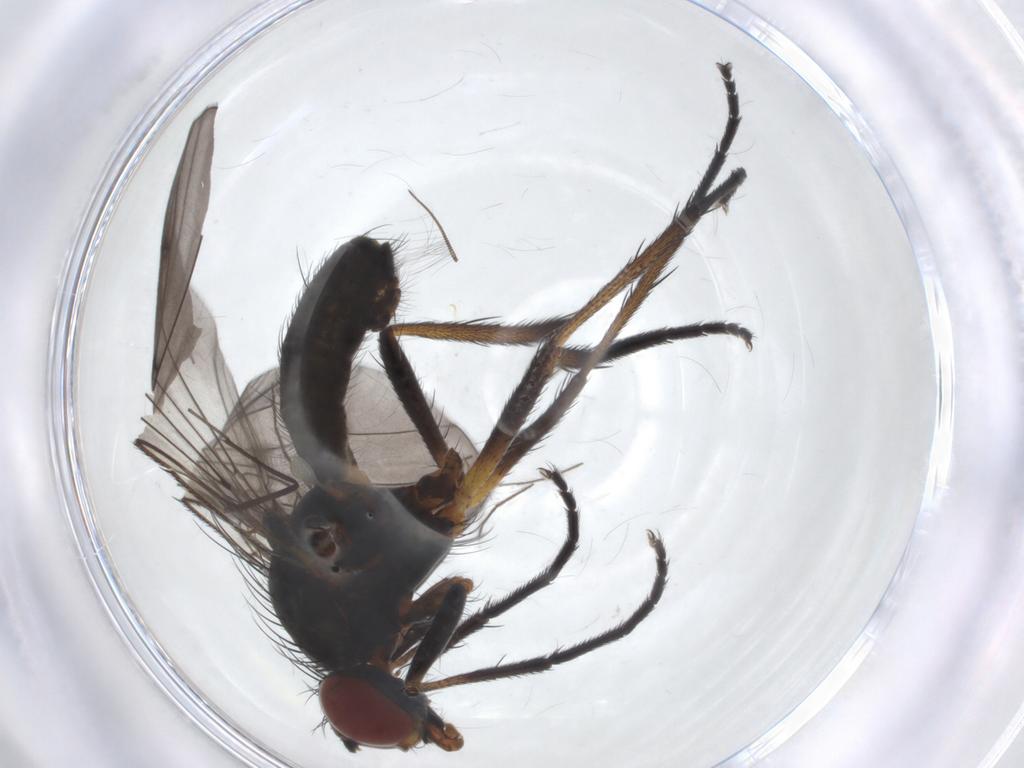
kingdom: Animalia
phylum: Arthropoda
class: Insecta
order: Diptera
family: Anthomyiidae
